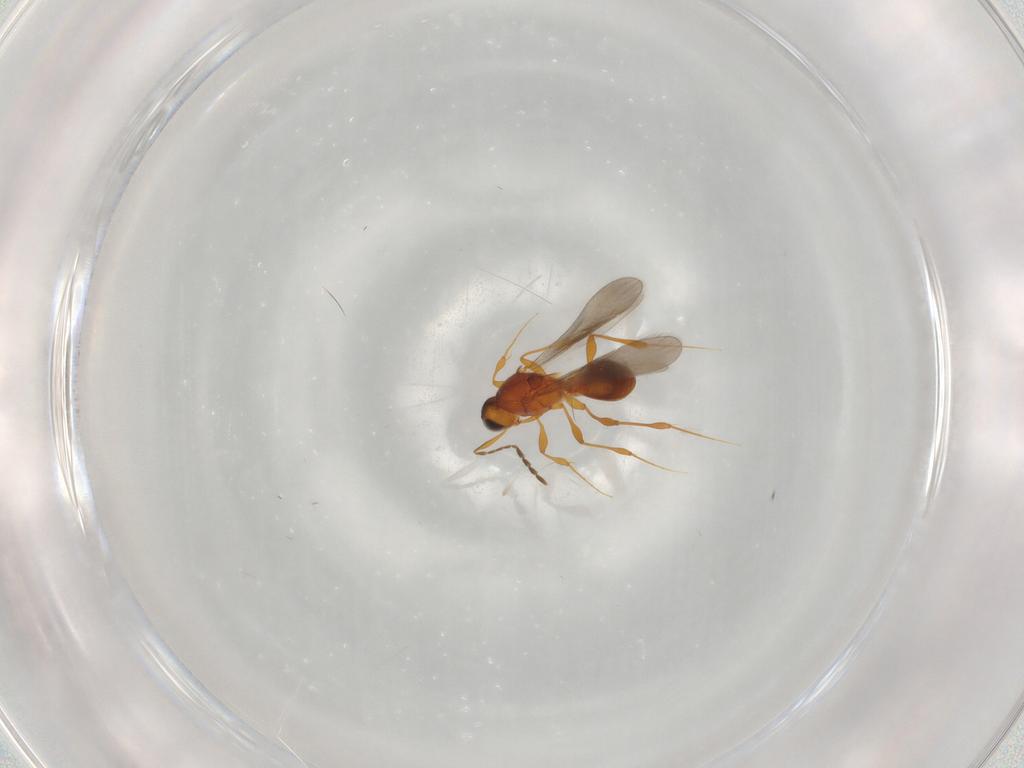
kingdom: Animalia
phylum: Arthropoda
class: Insecta
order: Hymenoptera
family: Platygastridae
